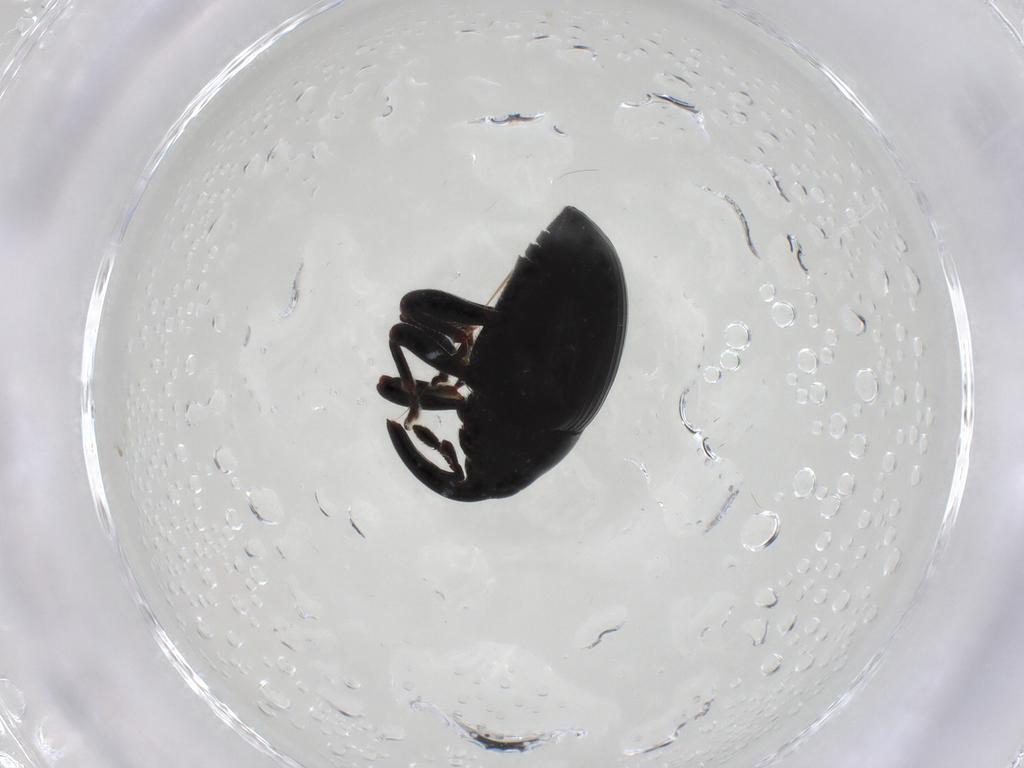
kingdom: Animalia
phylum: Arthropoda
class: Insecta
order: Coleoptera
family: Curculionidae
